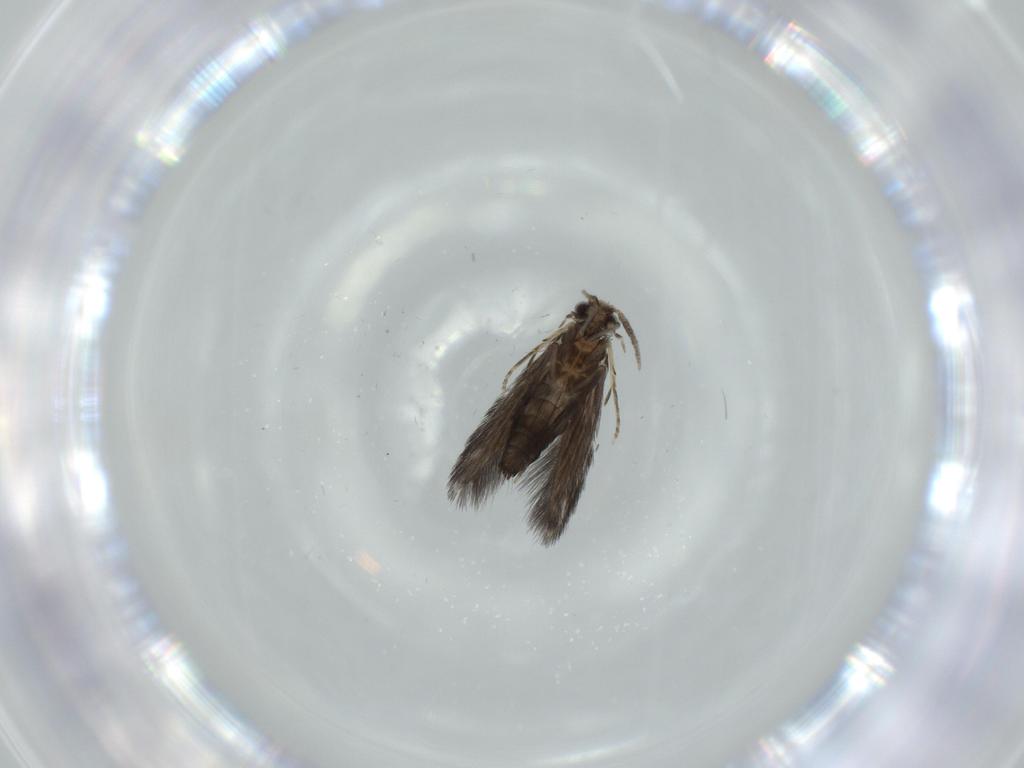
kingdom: Animalia
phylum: Arthropoda
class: Insecta
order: Trichoptera
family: Hydroptilidae
